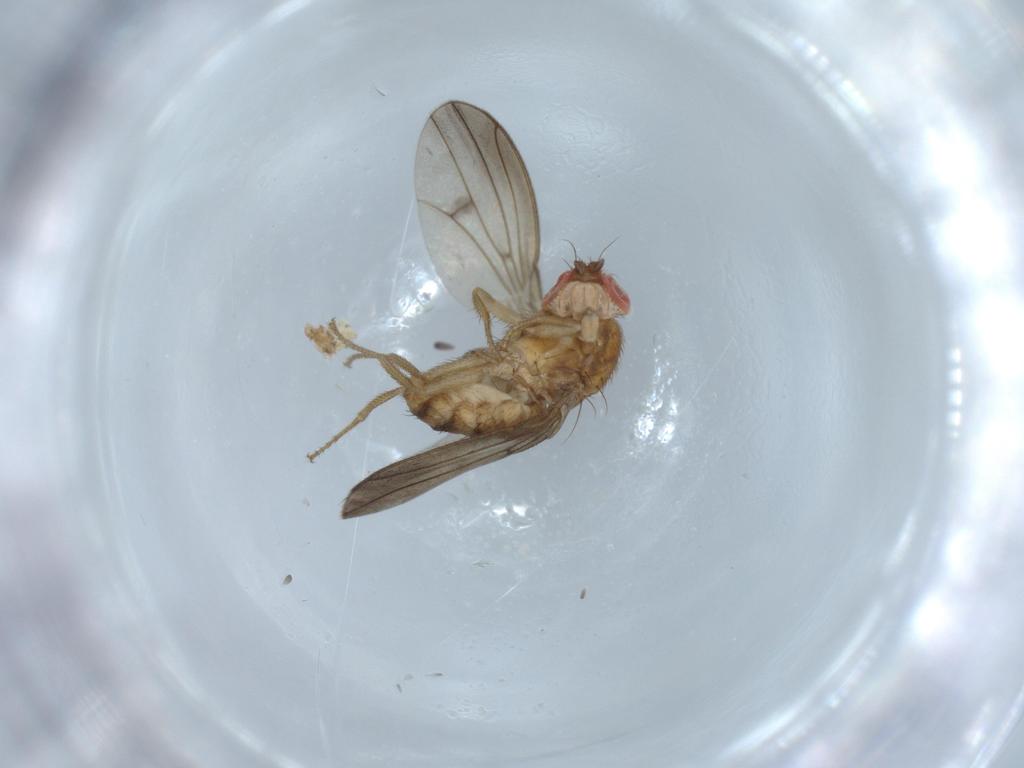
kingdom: Animalia
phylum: Arthropoda
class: Insecta
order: Diptera
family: Drosophilidae
